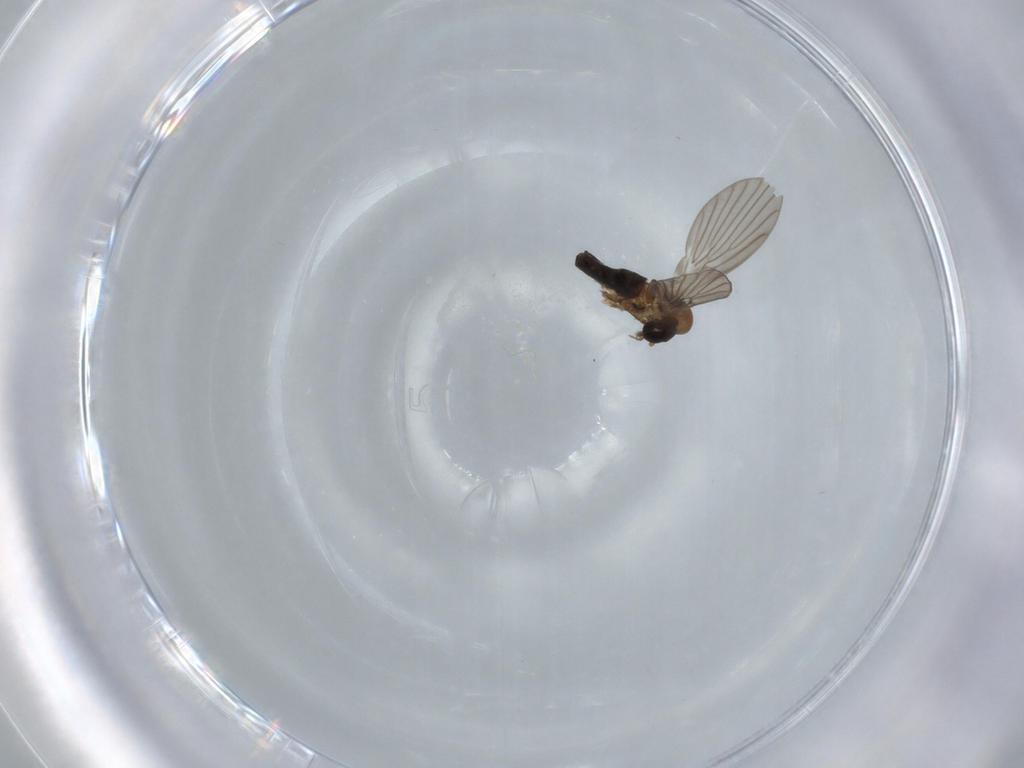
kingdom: Animalia
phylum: Arthropoda
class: Insecta
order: Diptera
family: Psychodidae
